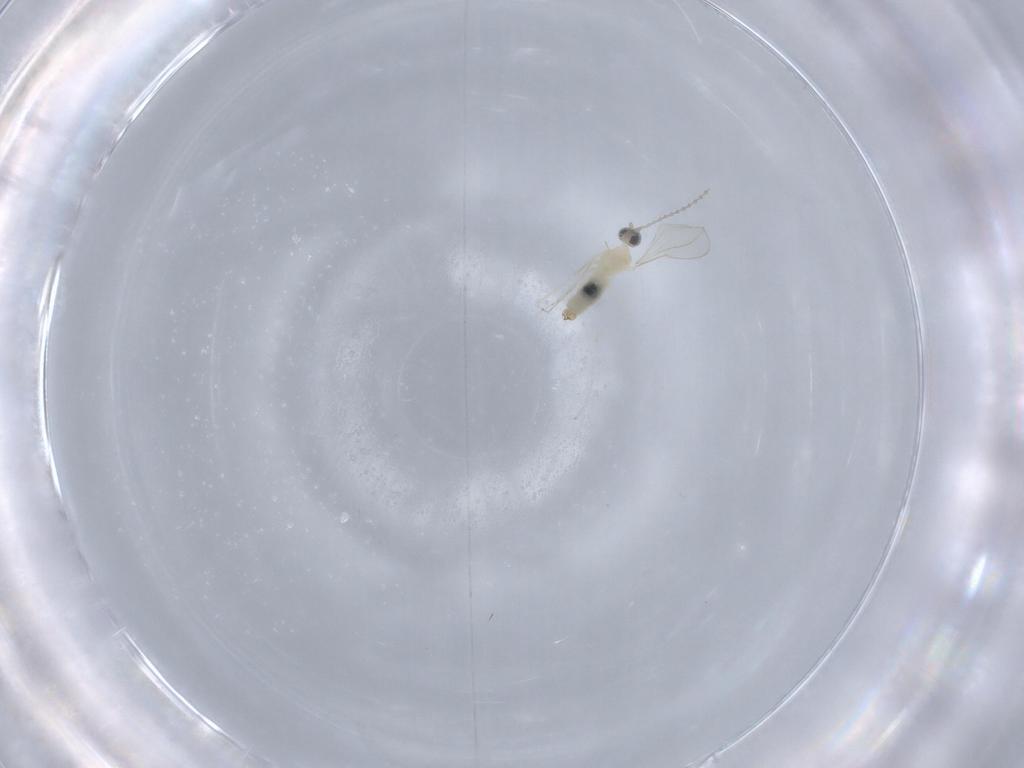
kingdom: Animalia
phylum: Arthropoda
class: Insecta
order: Diptera
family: Cecidomyiidae
